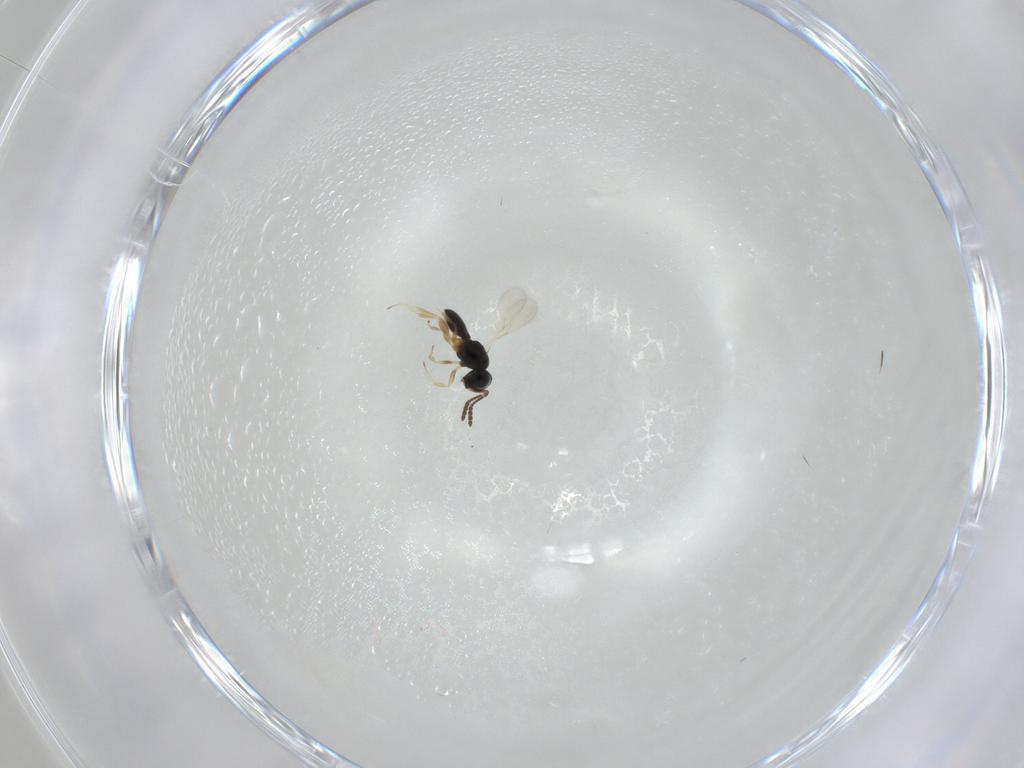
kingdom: Animalia
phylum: Arthropoda
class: Insecta
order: Hymenoptera
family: Scelionidae
